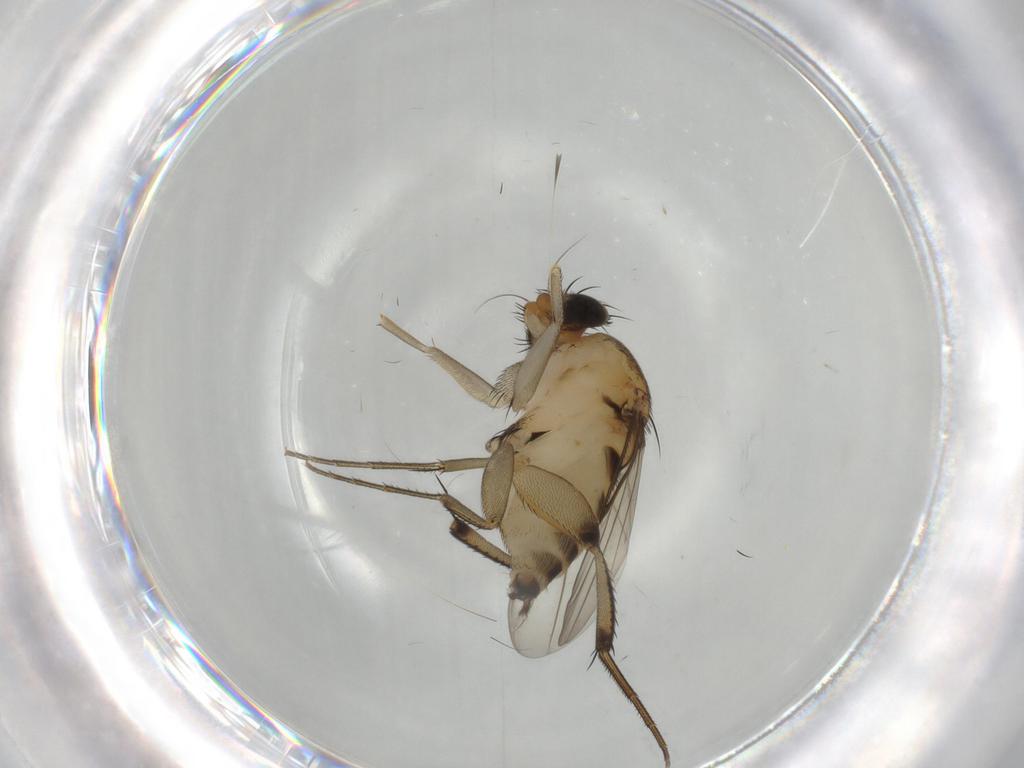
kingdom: Animalia
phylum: Arthropoda
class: Insecta
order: Diptera
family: Phoridae
